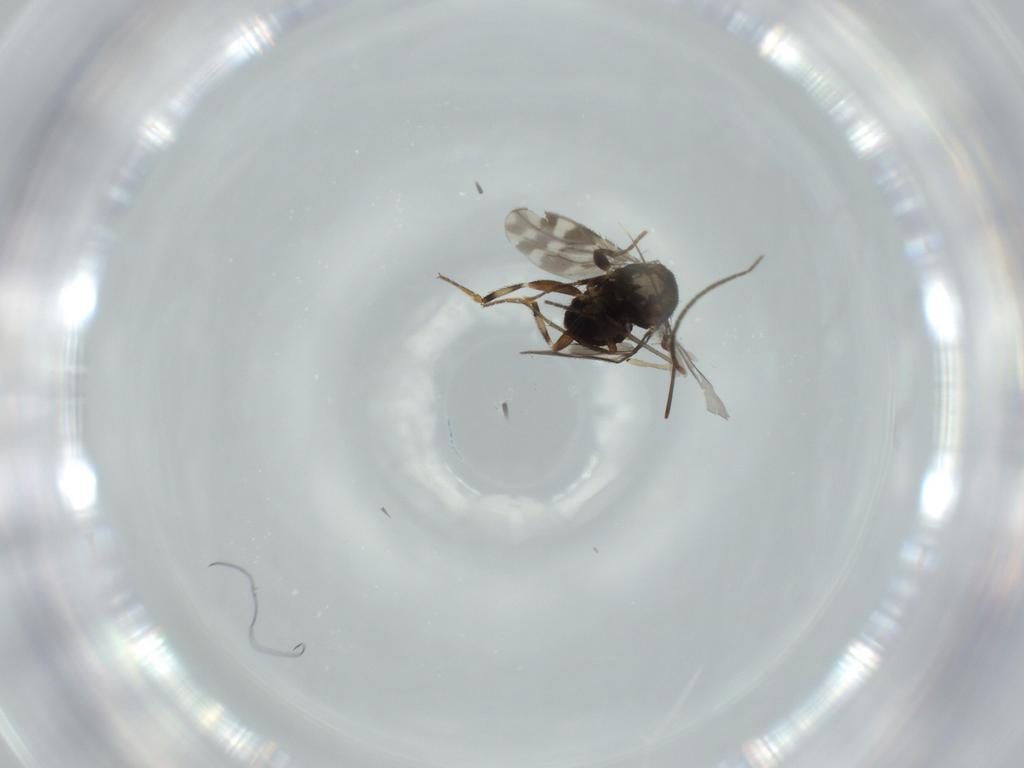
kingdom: Animalia
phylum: Arthropoda
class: Insecta
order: Diptera
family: Sphaeroceridae
